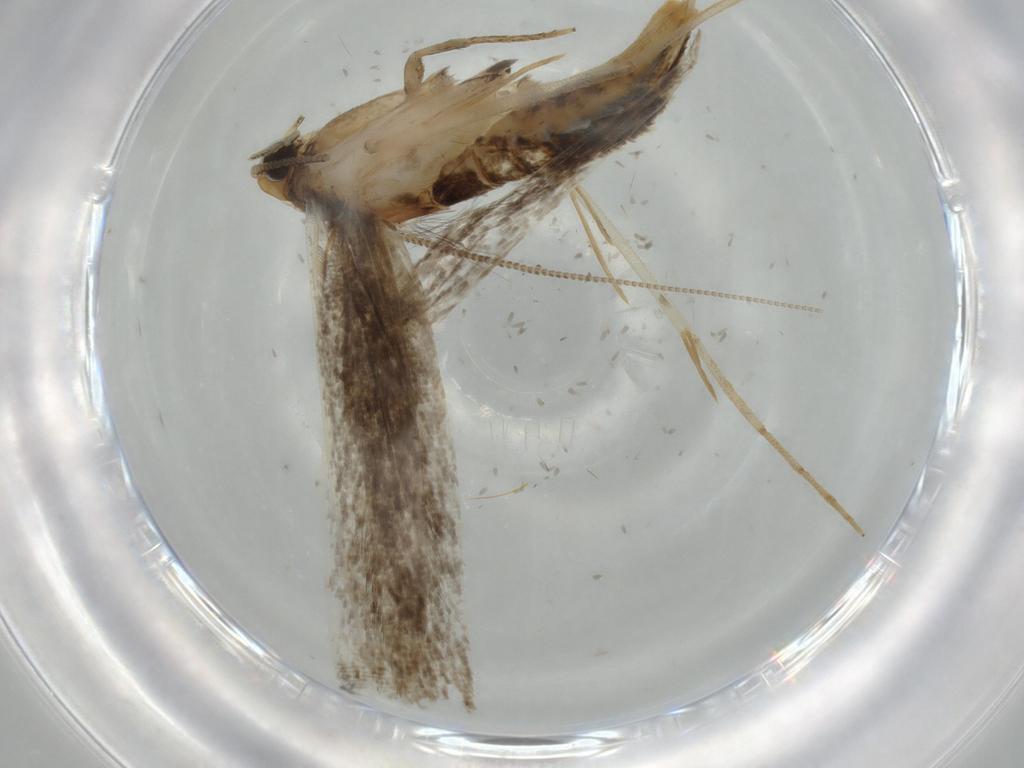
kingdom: Animalia
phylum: Arthropoda
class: Insecta
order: Lepidoptera
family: Tineidae
